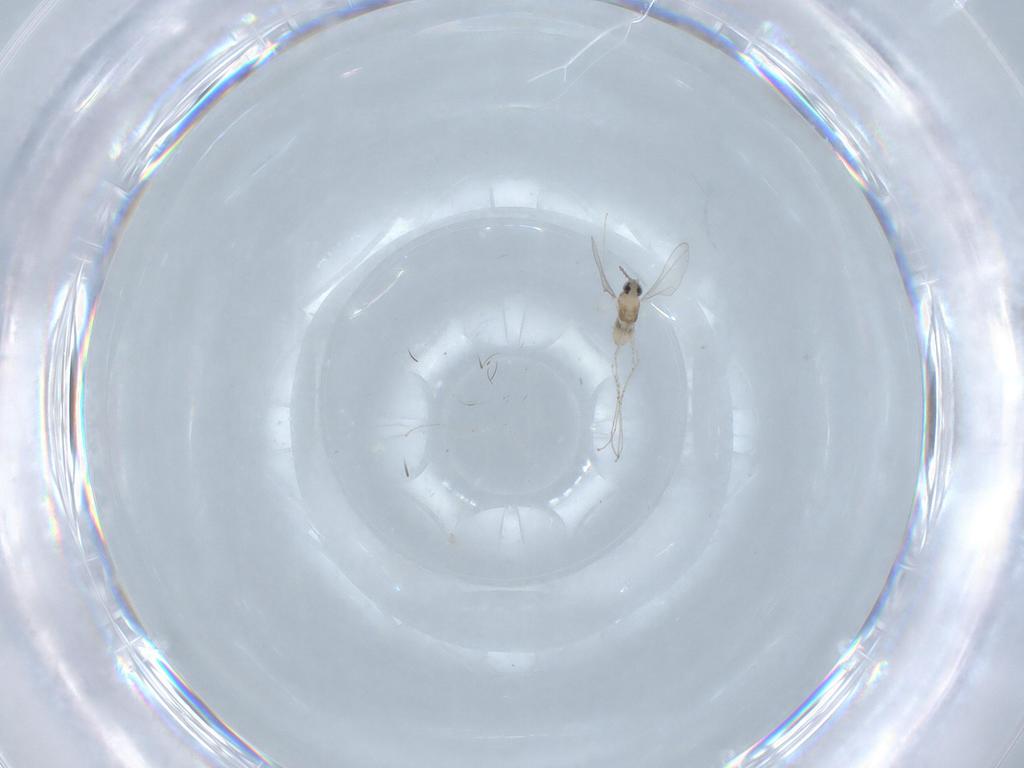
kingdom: Animalia
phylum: Arthropoda
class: Insecta
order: Diptera
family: Cecidomyiidae
